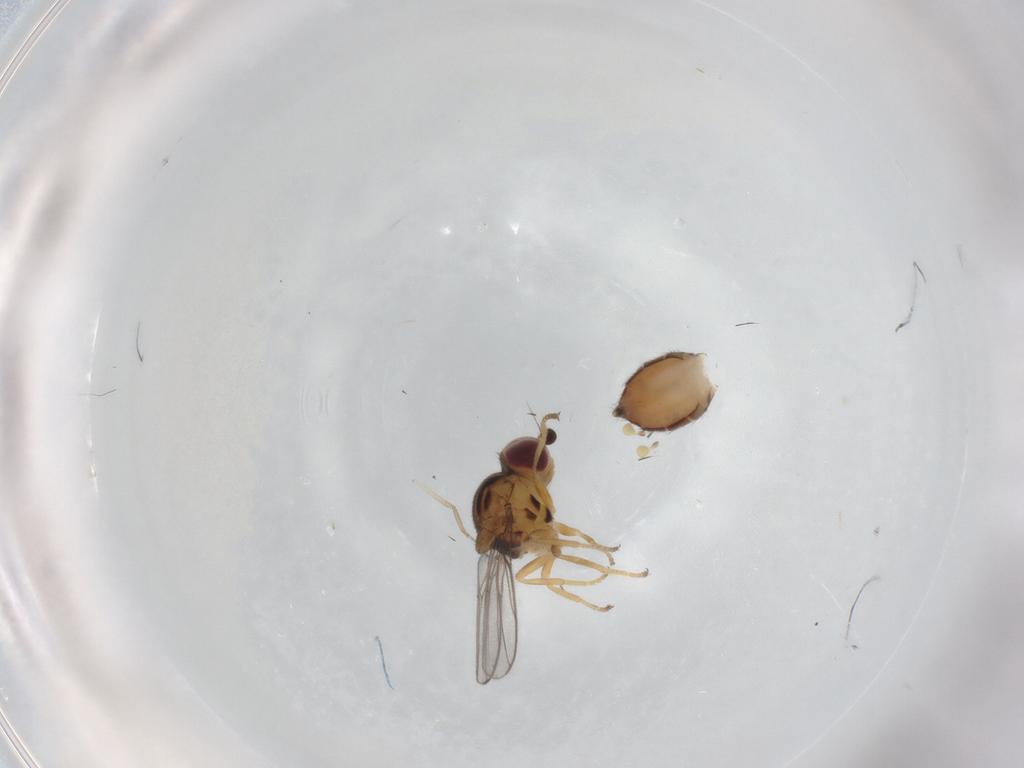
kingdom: Animalia
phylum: Arthropoda
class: Insecta
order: Diptera
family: Chloropidae
